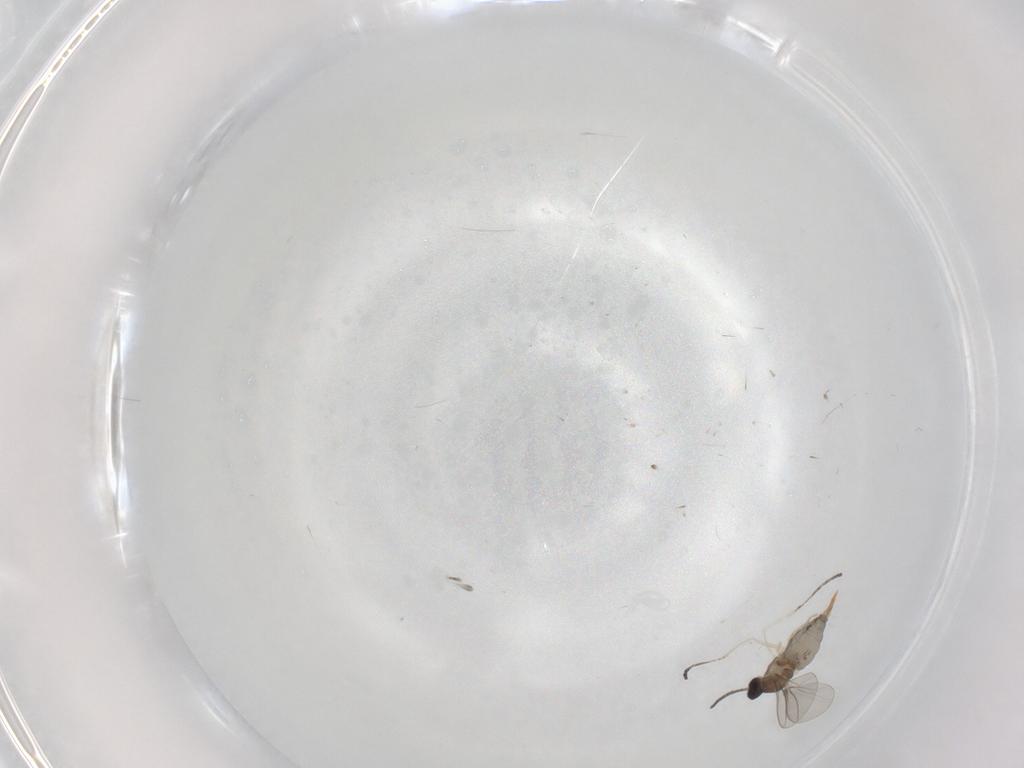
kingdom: Animalia
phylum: Arthropoda
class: Insecta
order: Diptera
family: Cecidomyiidae
